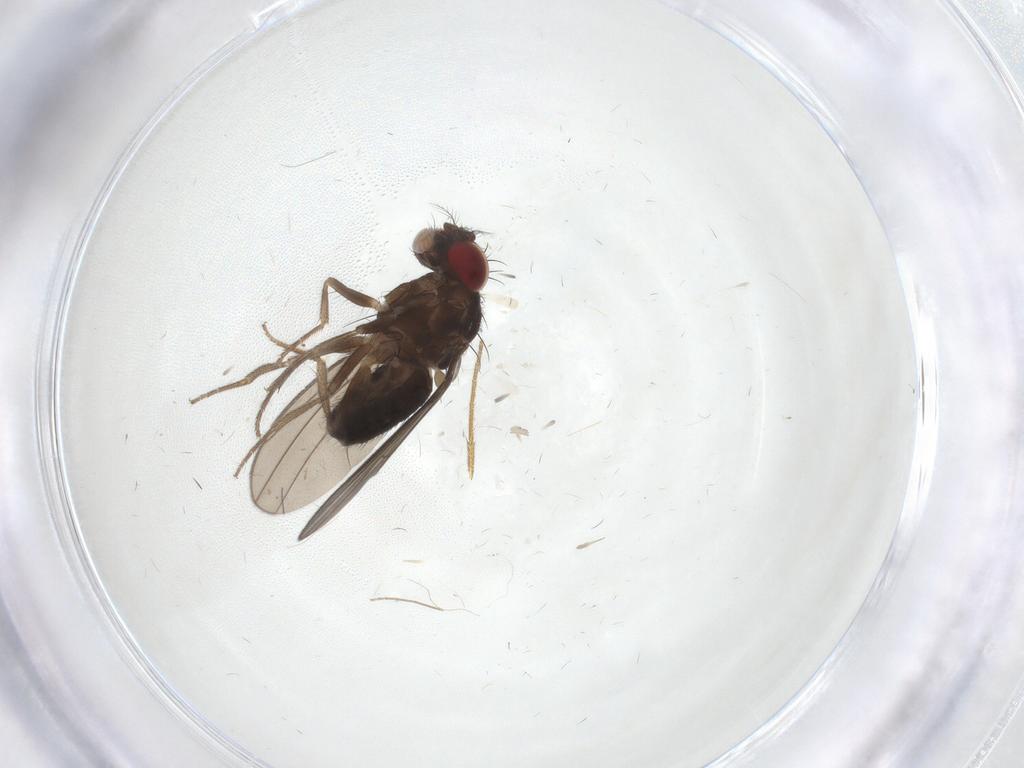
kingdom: Animalia
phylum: Arthropoda
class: Insecta
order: Diptera
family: Drosophilidae
